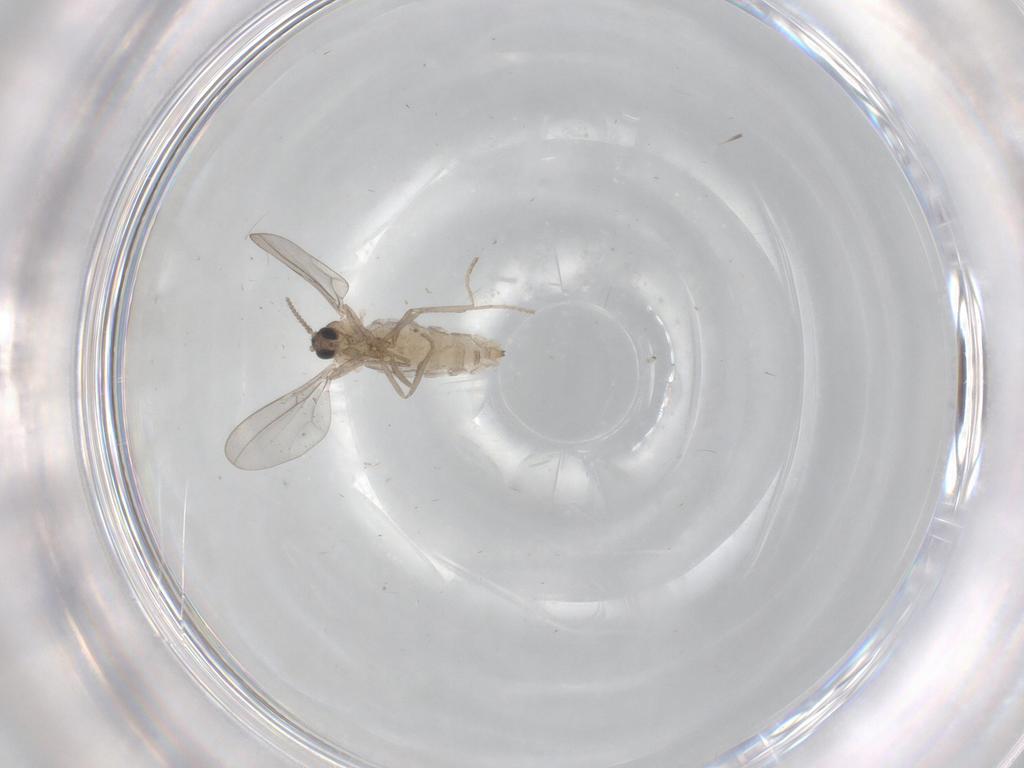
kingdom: Animalia
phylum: Arthropoda
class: Insecta
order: Diptera
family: Cecidomyiidae
